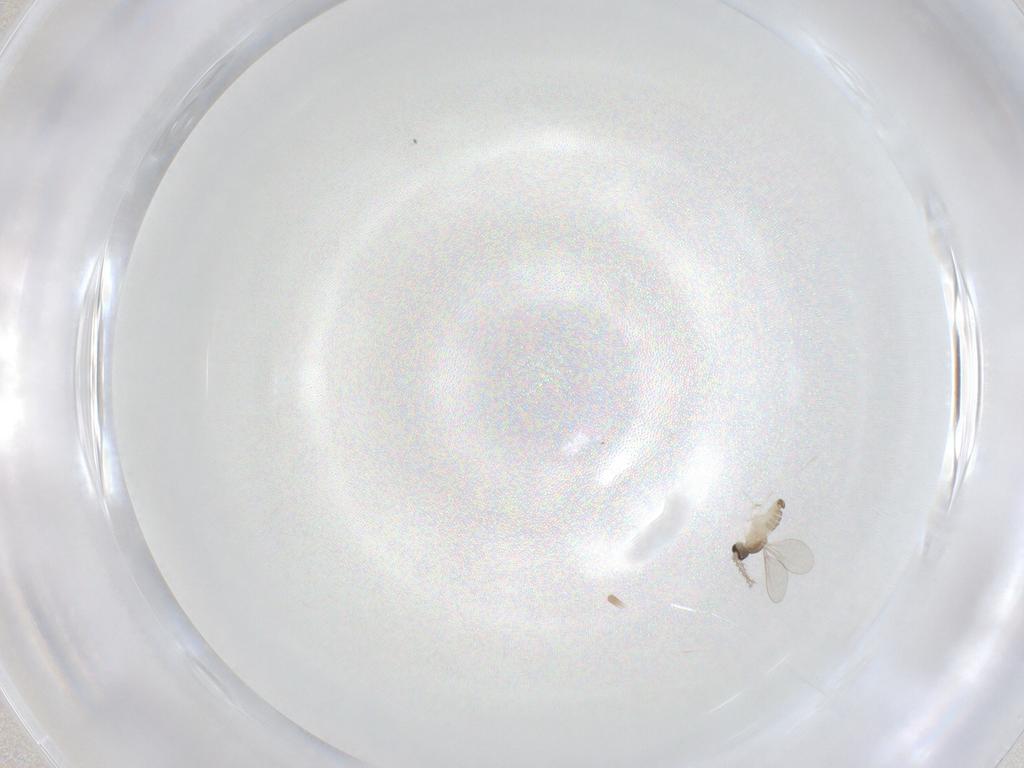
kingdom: Animalia
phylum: Arthropoda
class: Insecta
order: Diptera
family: Cecidomyiidae
